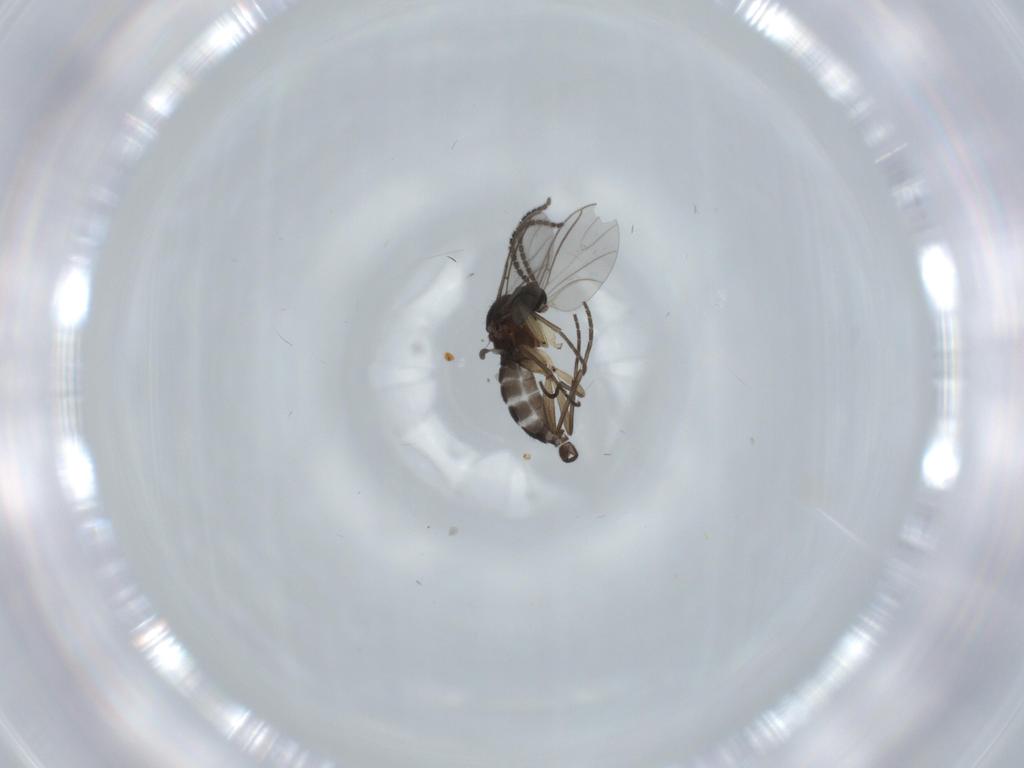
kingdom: Animalia
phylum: Arthropoda
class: Insecta
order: Diptera
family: Sciaridae
